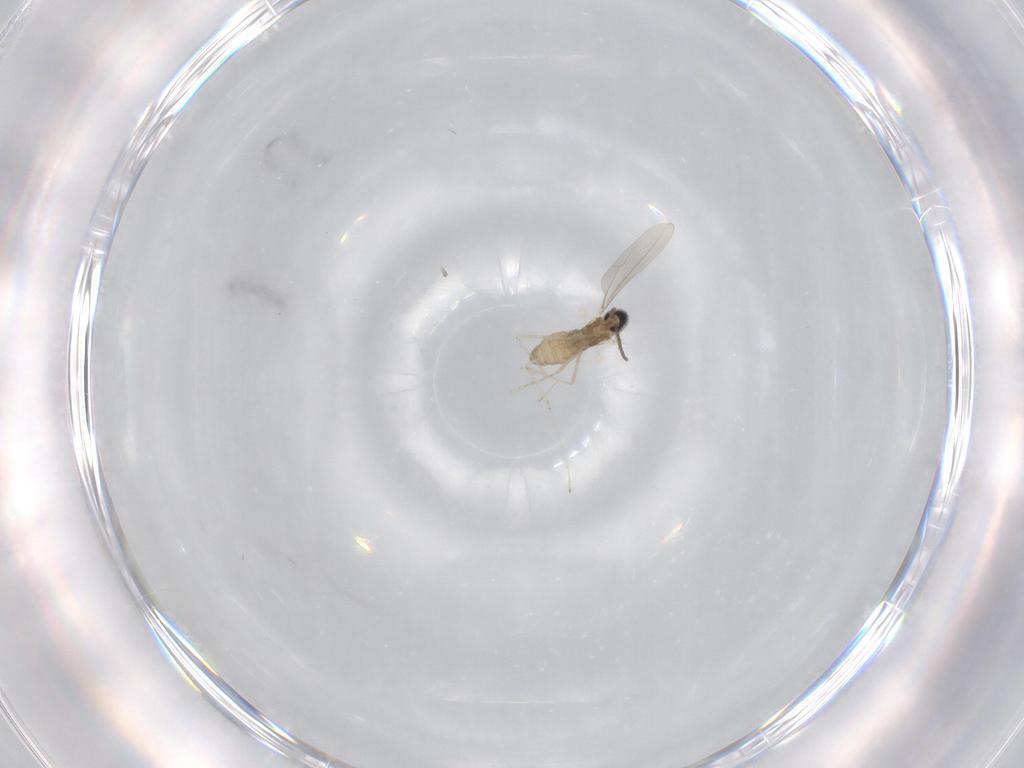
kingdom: Animalia
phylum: Arthropoda
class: Insecta
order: Diptera
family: Cecidomyiidae
